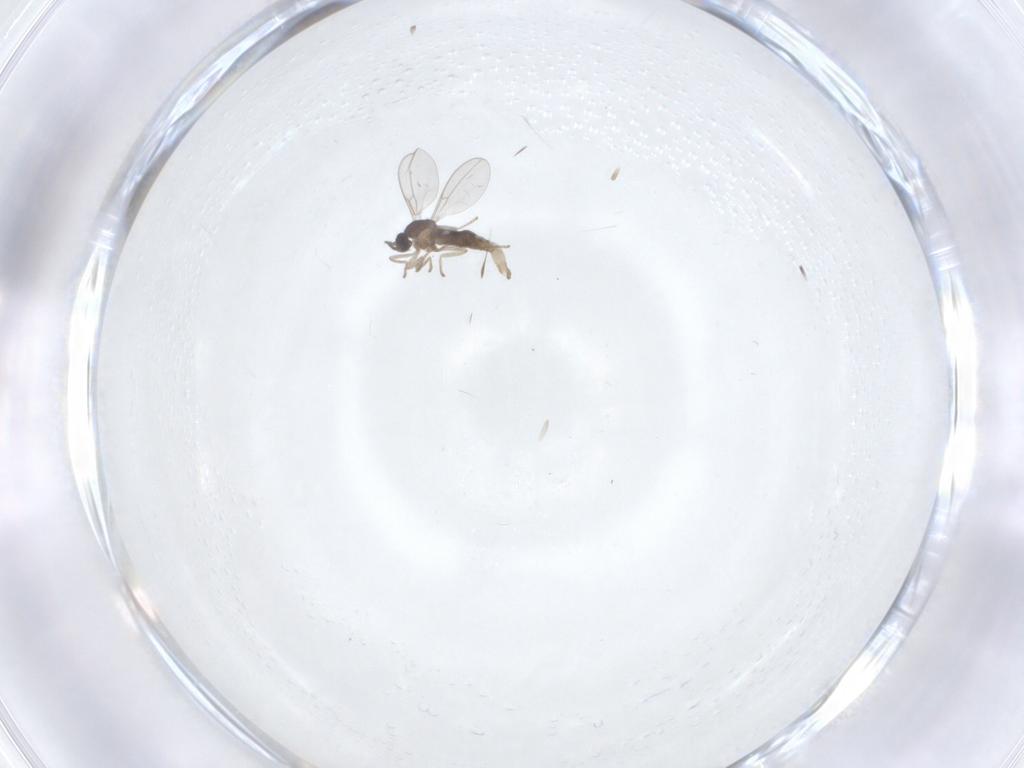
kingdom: Animalia
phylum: Arthropoda
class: Insecta
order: Diptera
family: Cecidomyiidae
